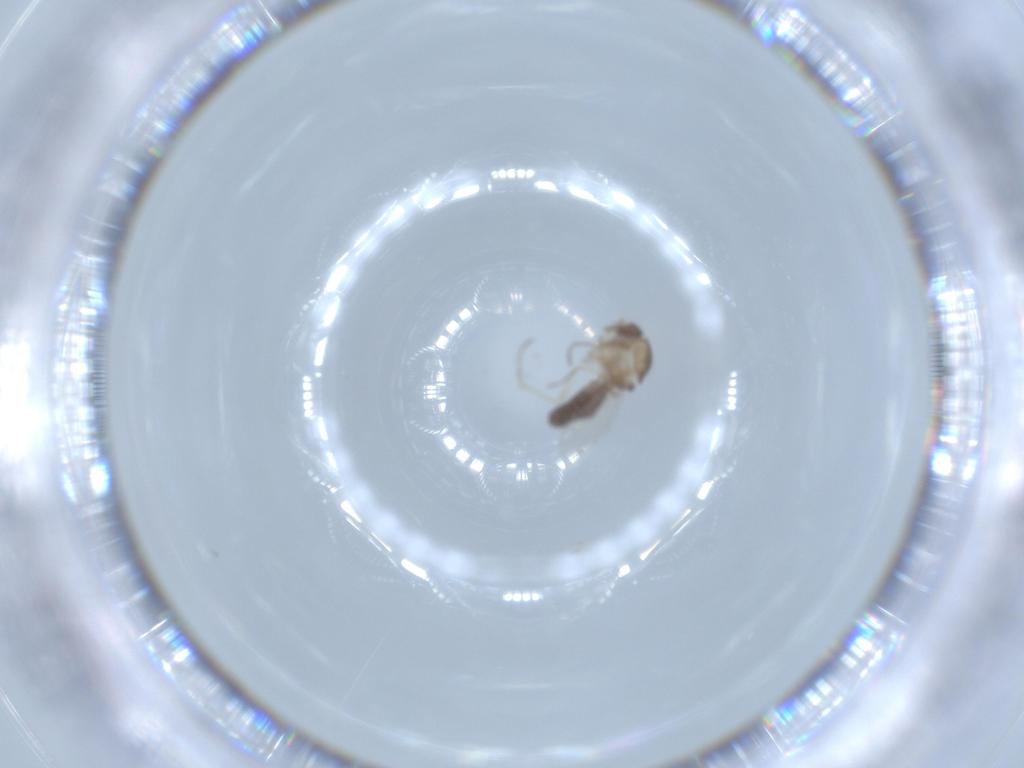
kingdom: Animalia
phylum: Arthropoda
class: Insecta
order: Diptera
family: Ceratopogonidae
